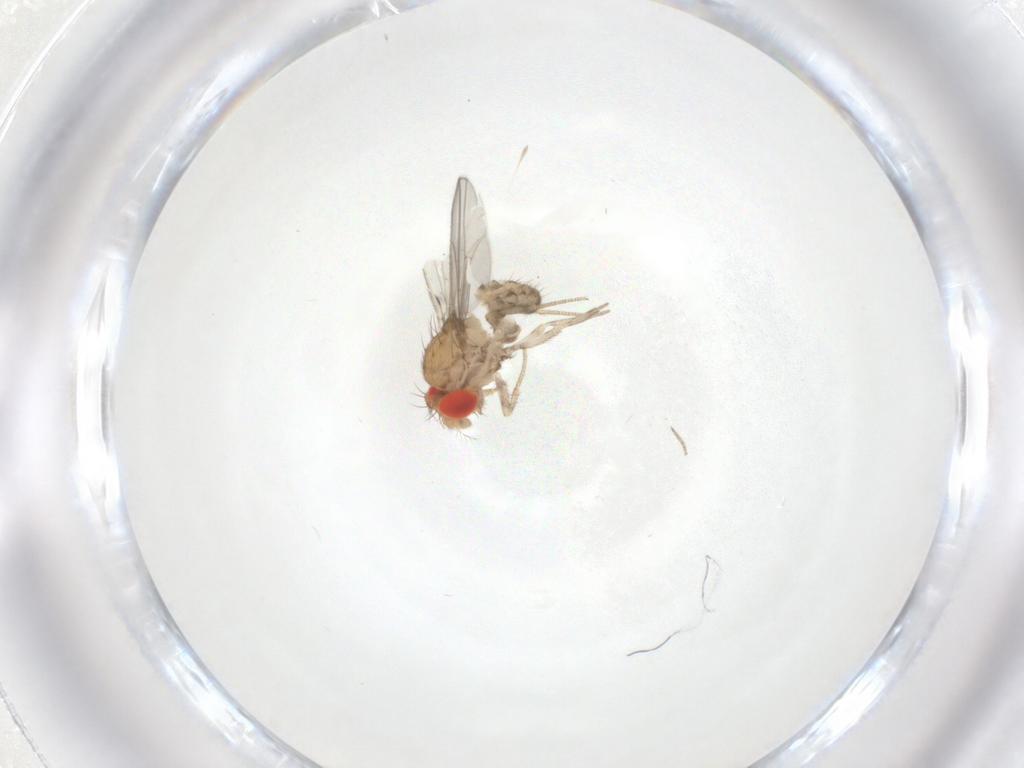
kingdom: Animalia
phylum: Arthropoda
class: Insecta
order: Diptera
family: Drosophilidae
